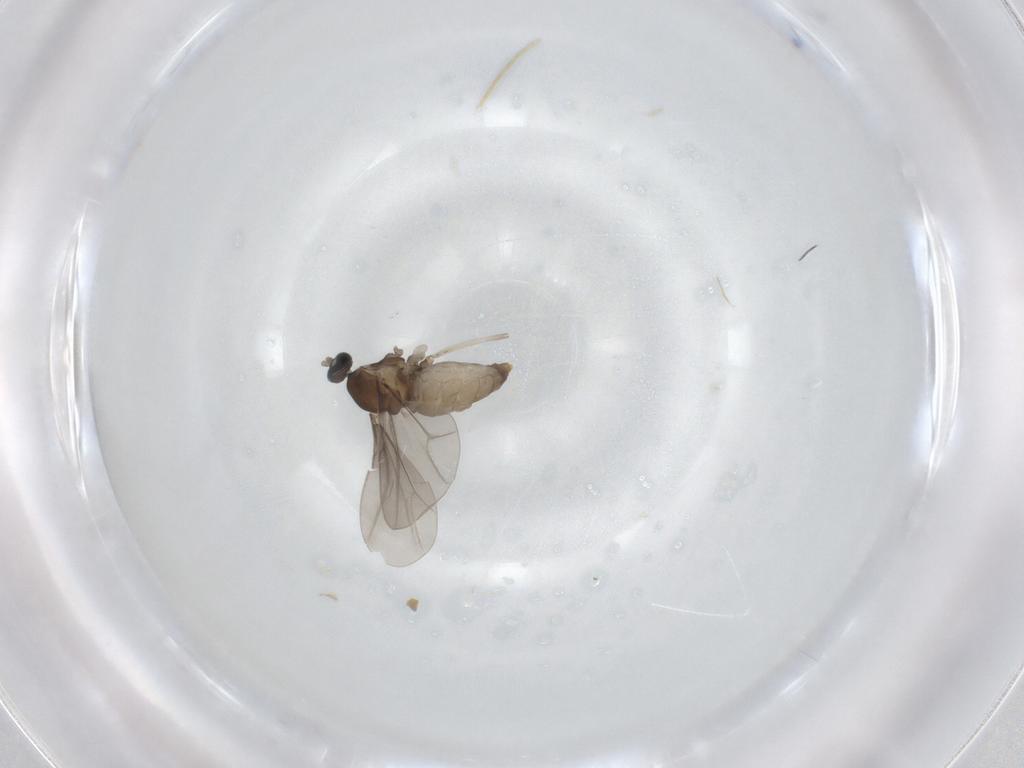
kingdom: Animalia
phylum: Arthropoda
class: Insecta
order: Diptera
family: Cecidomyiidae
